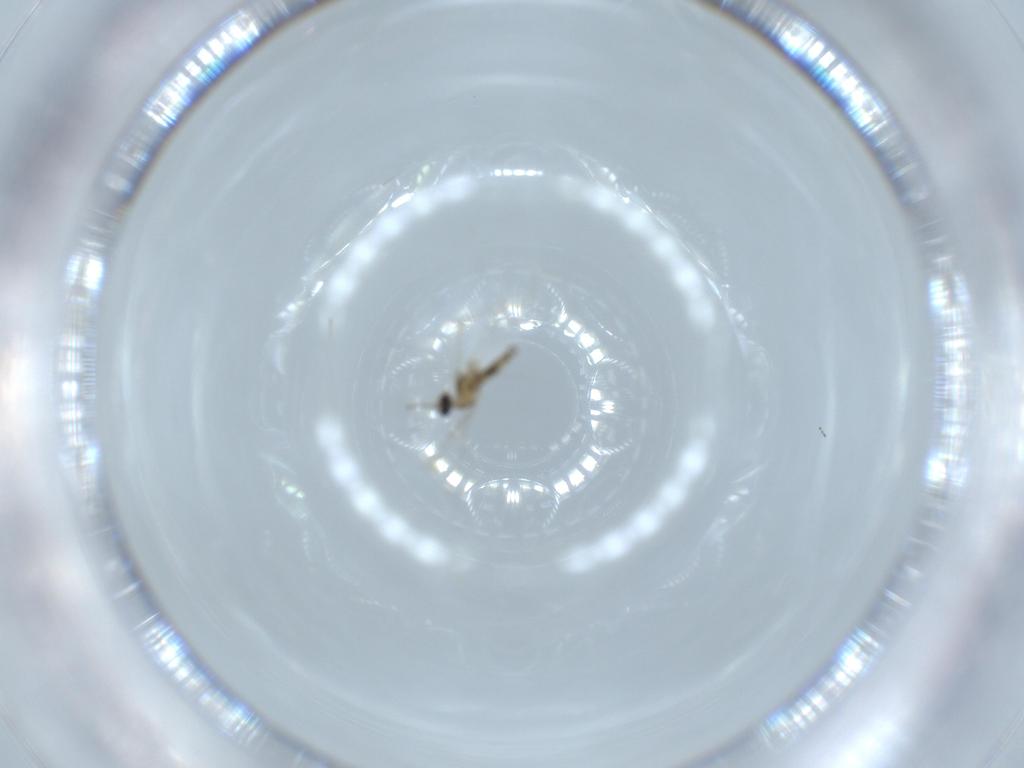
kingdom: Animalia
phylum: Arthropoda
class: Insecta
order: Diptera
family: Cecidomyiidae
